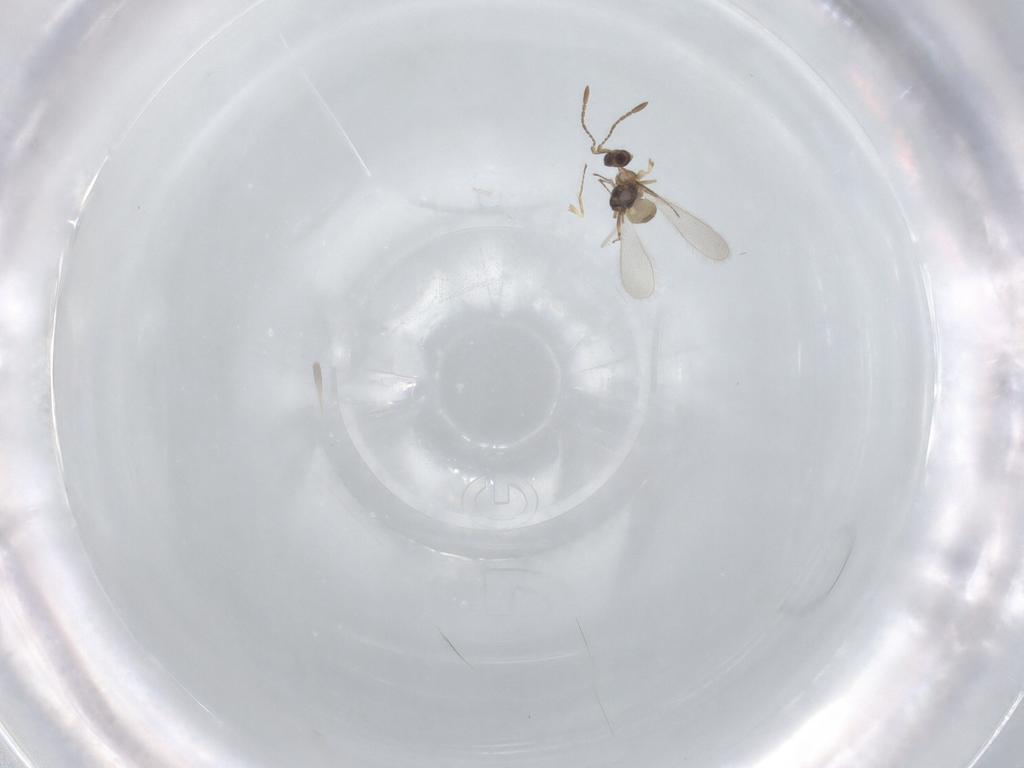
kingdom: Animalia
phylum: Arthropoda
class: Insecta
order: Hymenoptera
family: Mymaridae
